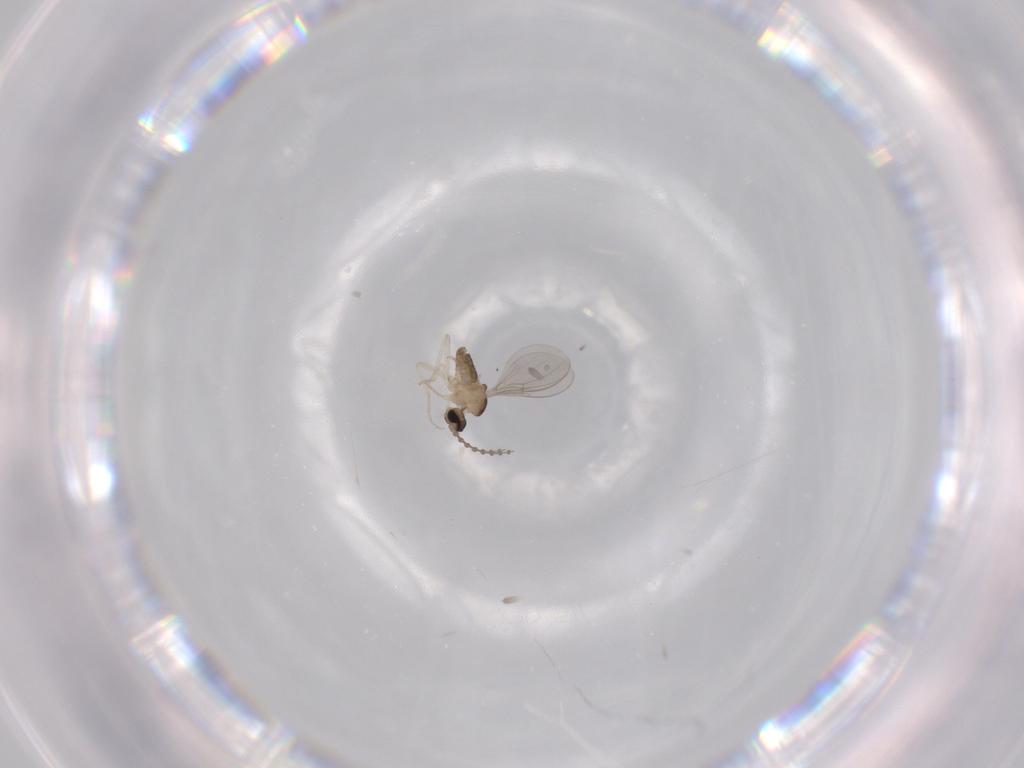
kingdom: Animalia
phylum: Arthropoda
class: Insecta
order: Diptera
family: Cecidomyiidae
